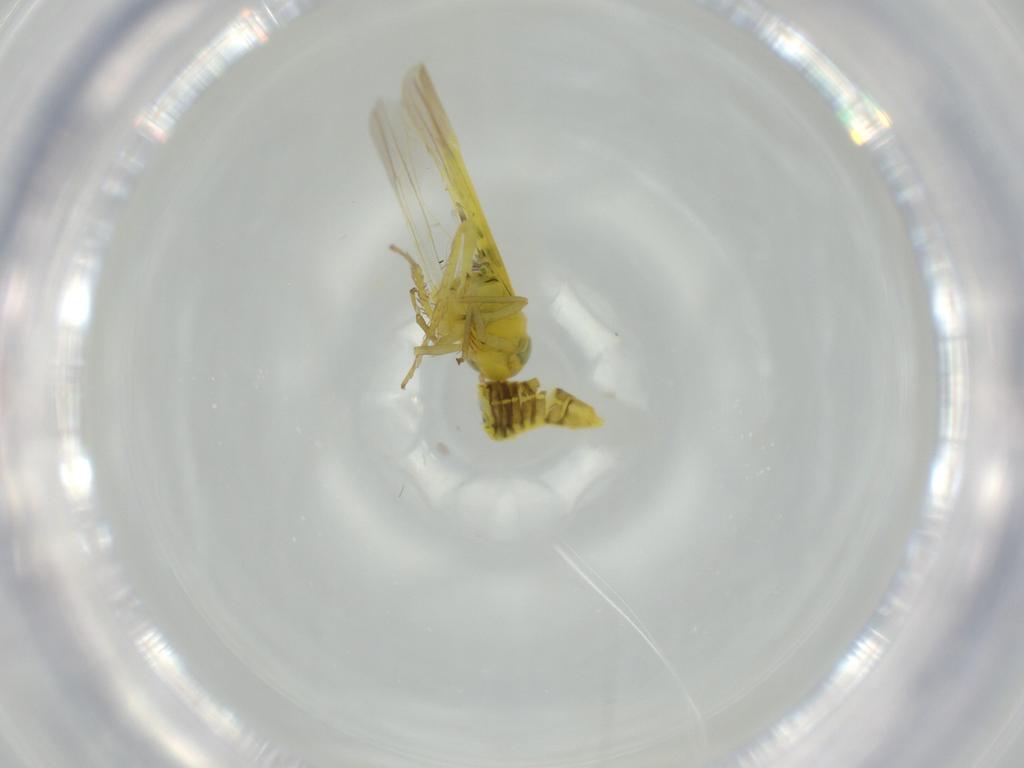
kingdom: Animalia
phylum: Arthropoda
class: Insecta
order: Hemiptera
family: Cicadellidae
